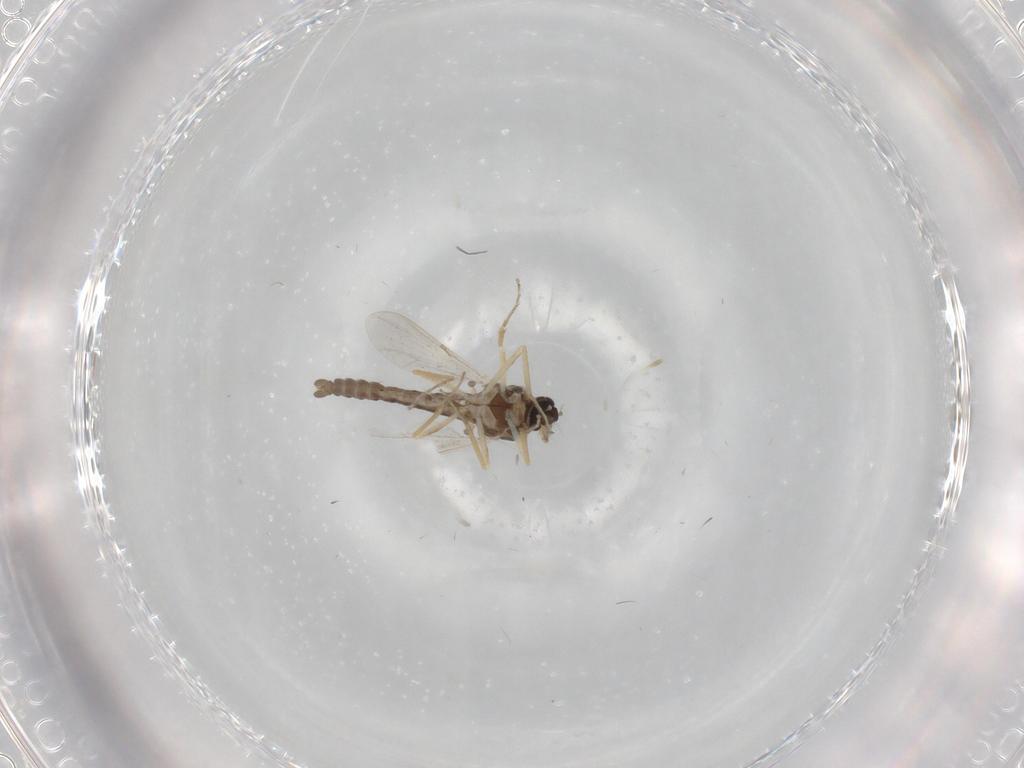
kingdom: Animalia
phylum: Arthropoda
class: Insecta
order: Diptera
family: Ceratopogonidae
